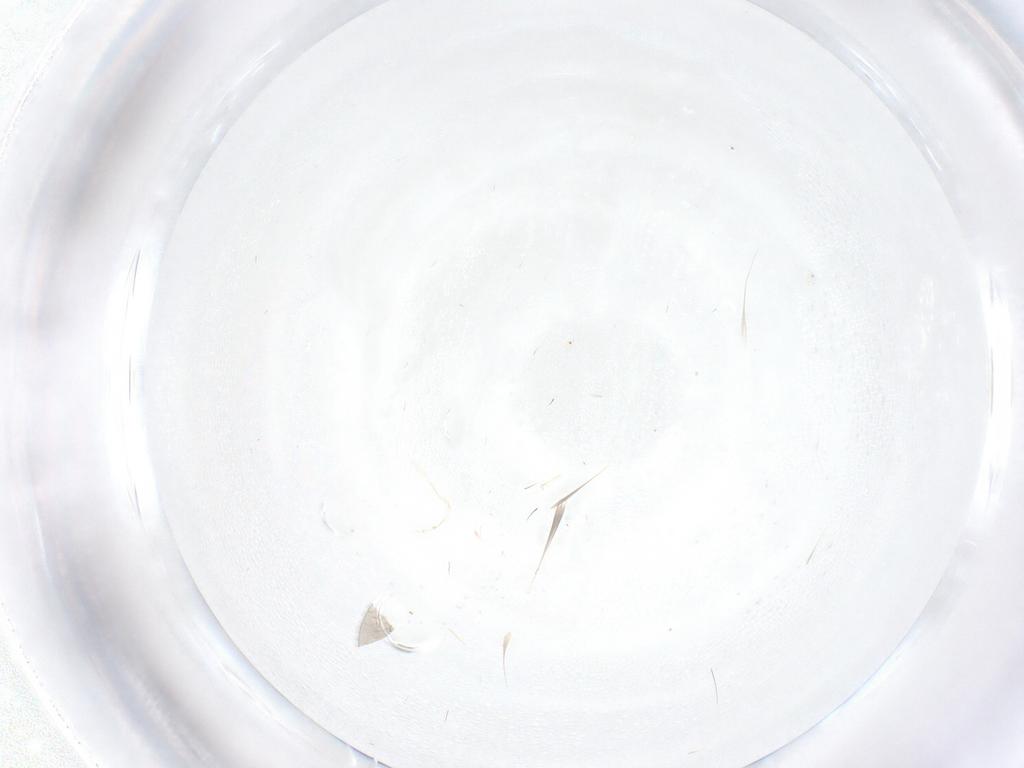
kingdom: Animalia
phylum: Arthropoda
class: Insecta
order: Diptera
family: Dolichopodidae
